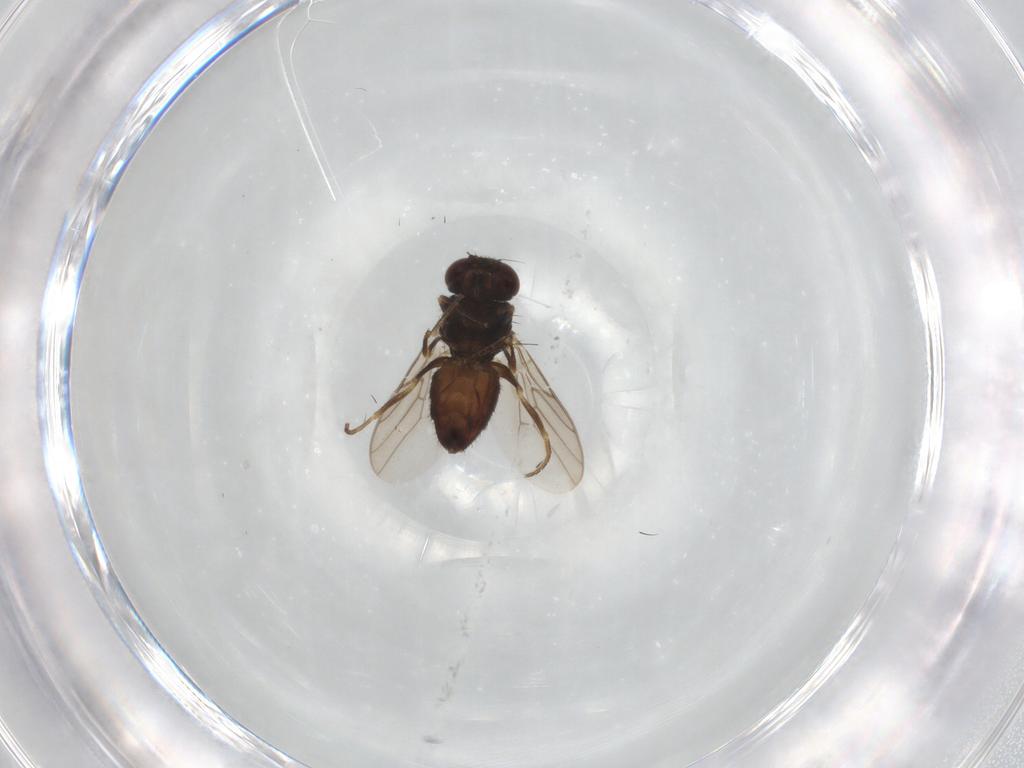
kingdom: Animalia
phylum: Arthropoda
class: Insecta
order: Diptera
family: Chloropidae
